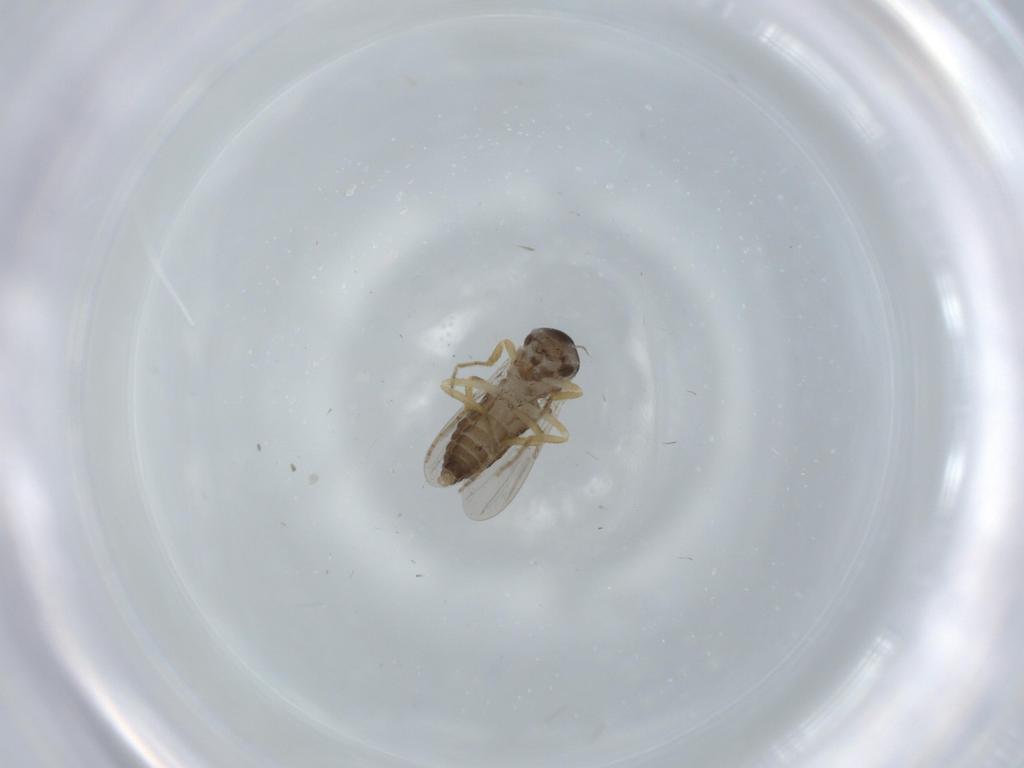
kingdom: Animalia
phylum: Arthropoda
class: Insecta
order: Diptera
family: Ceratopogonidae
